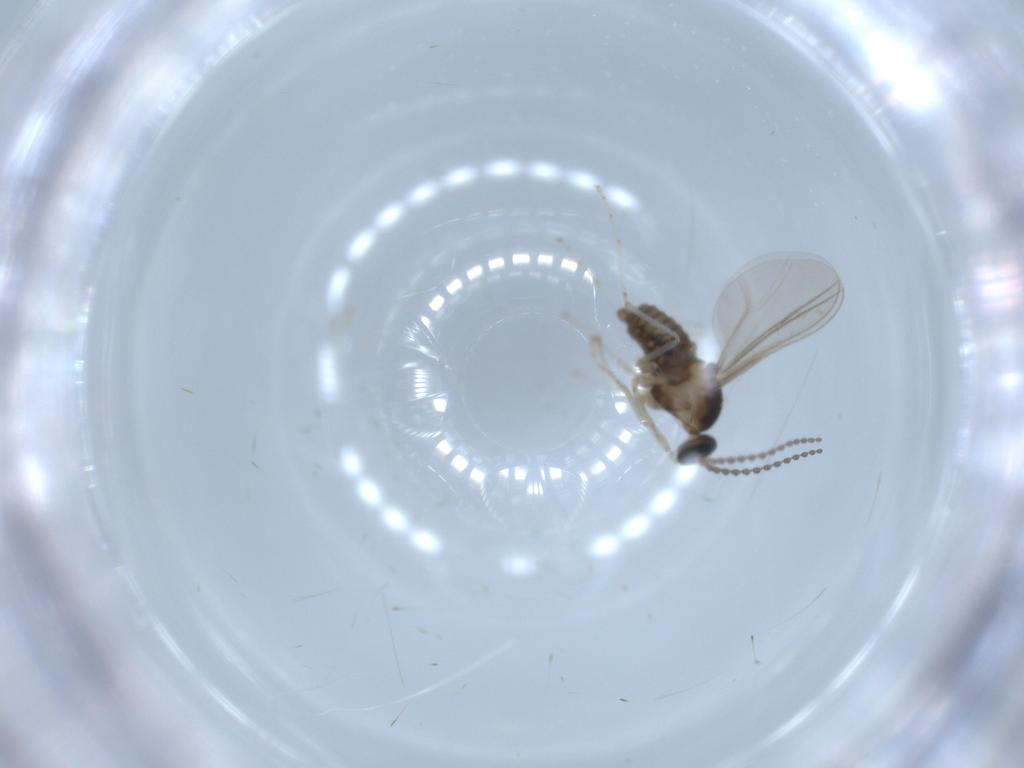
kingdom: Animalia
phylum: Arthropoda
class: Insecta
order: Diptera
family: Cecidomyiidae
